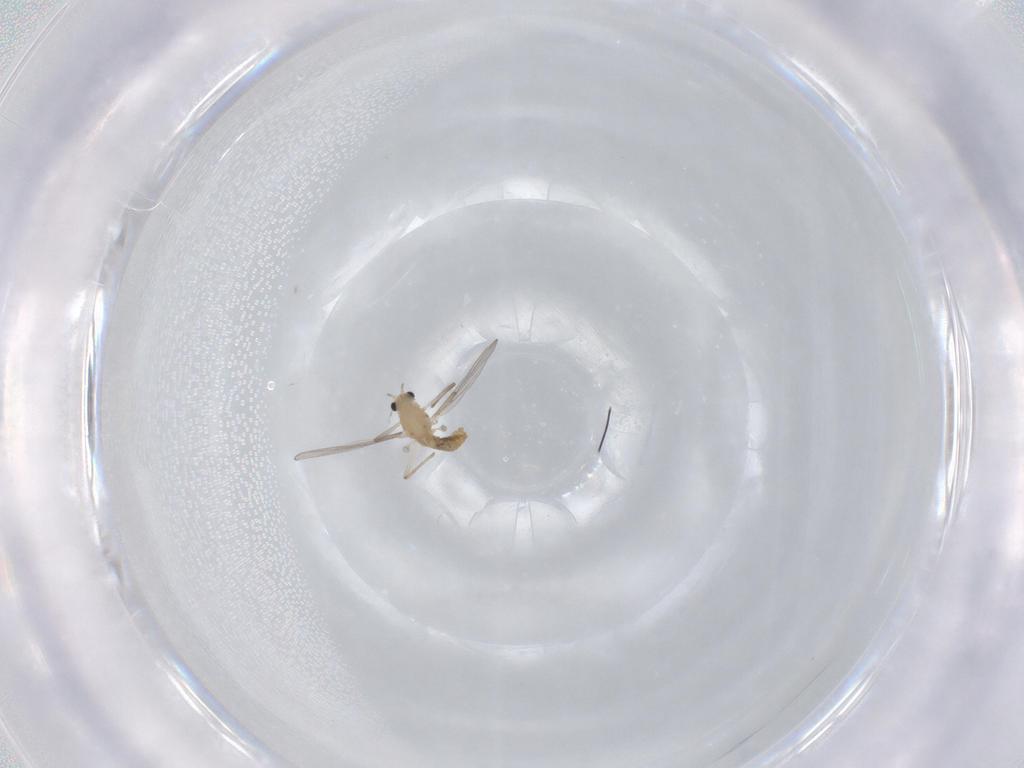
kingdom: Animalia
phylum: Arthropoda
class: Insecta
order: Diptera
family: Chironomidae
